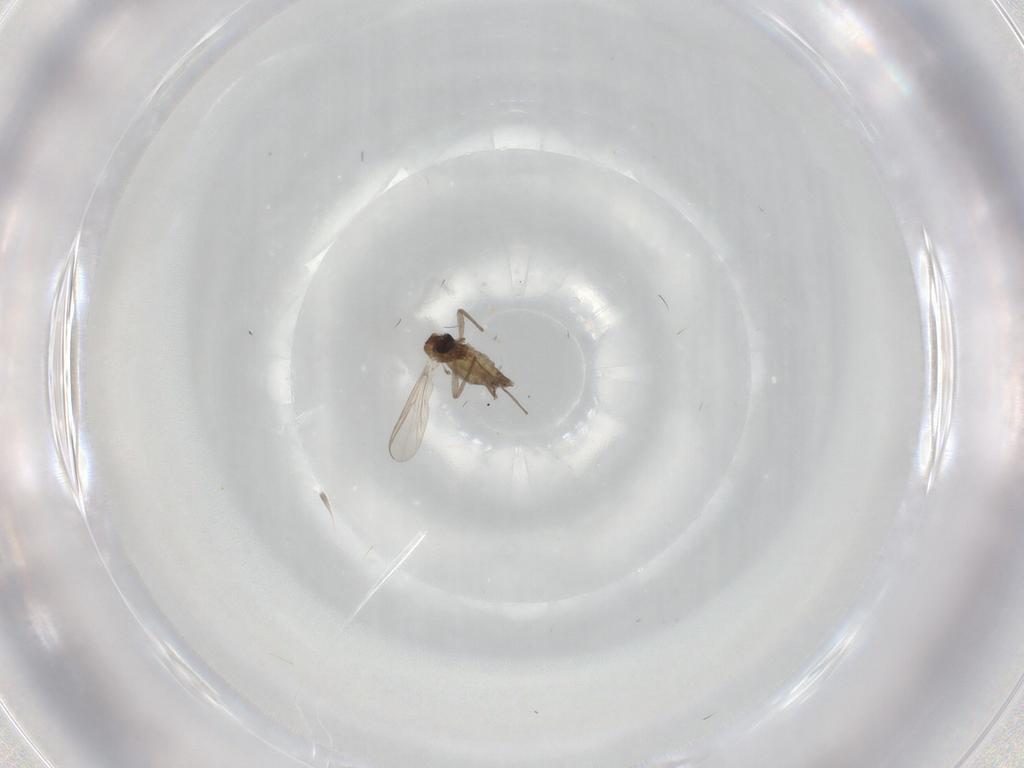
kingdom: Animalia
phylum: Arthropoda
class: Insecta
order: Diptera
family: Chironomidae
